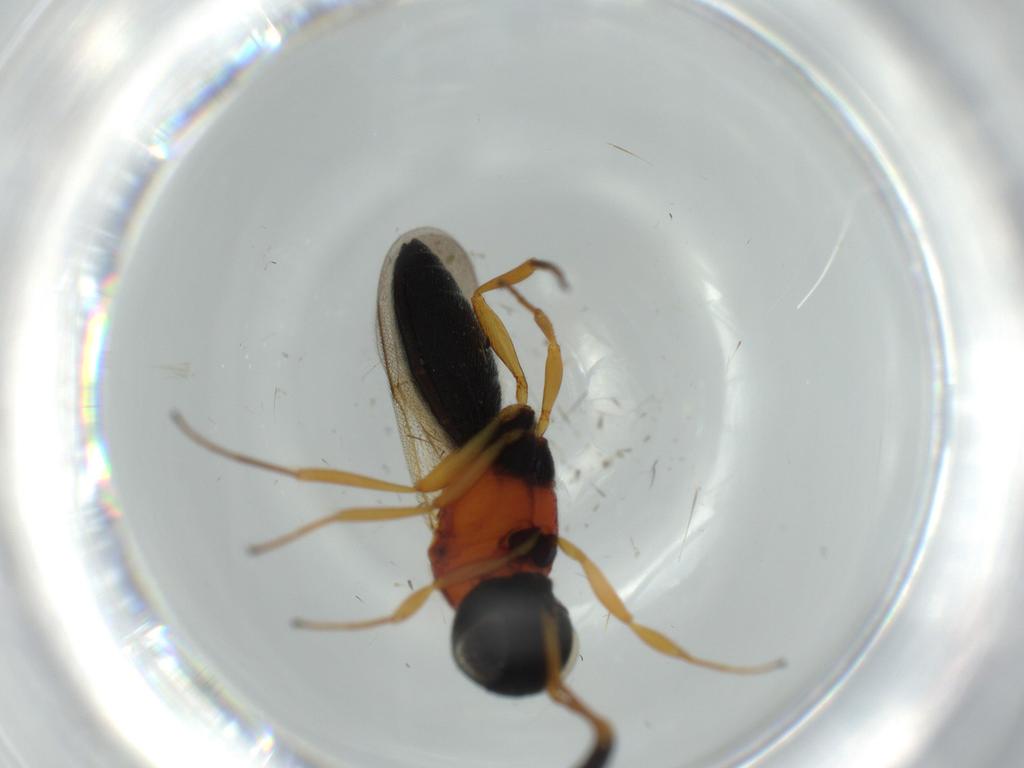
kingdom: Animalia
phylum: Arthropoda
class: Insecta
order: Hymenoptera
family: Scelionidae
